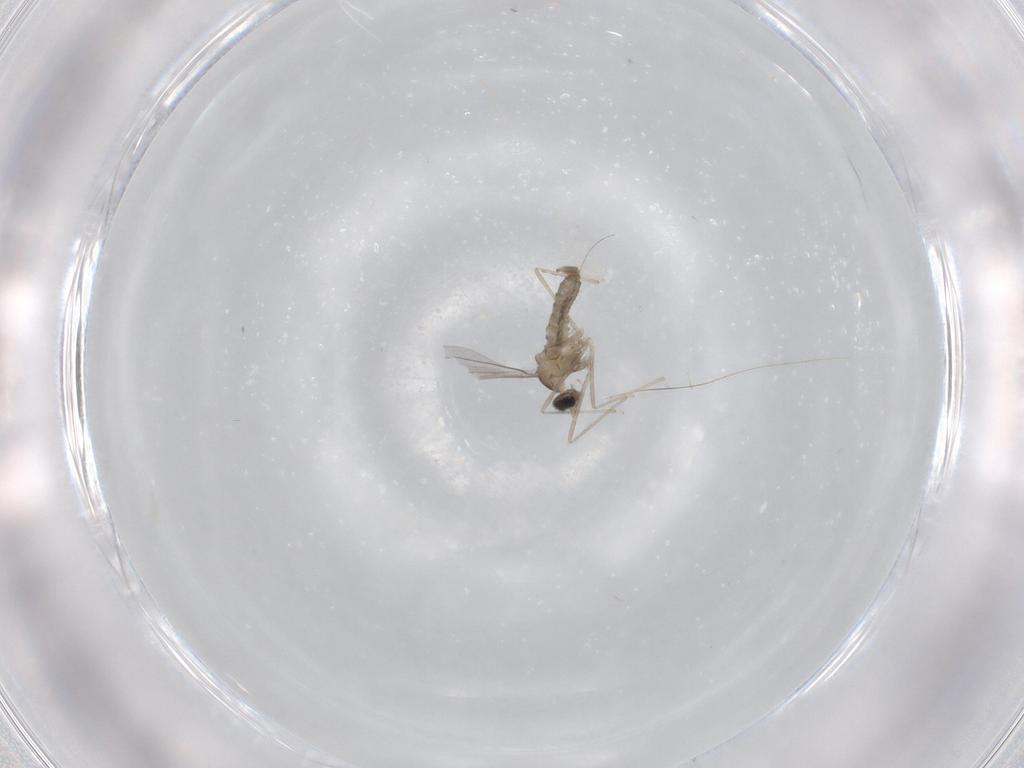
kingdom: Animalia
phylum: Arthropoda
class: Insecta
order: Diptera
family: Cecidomyiidae
